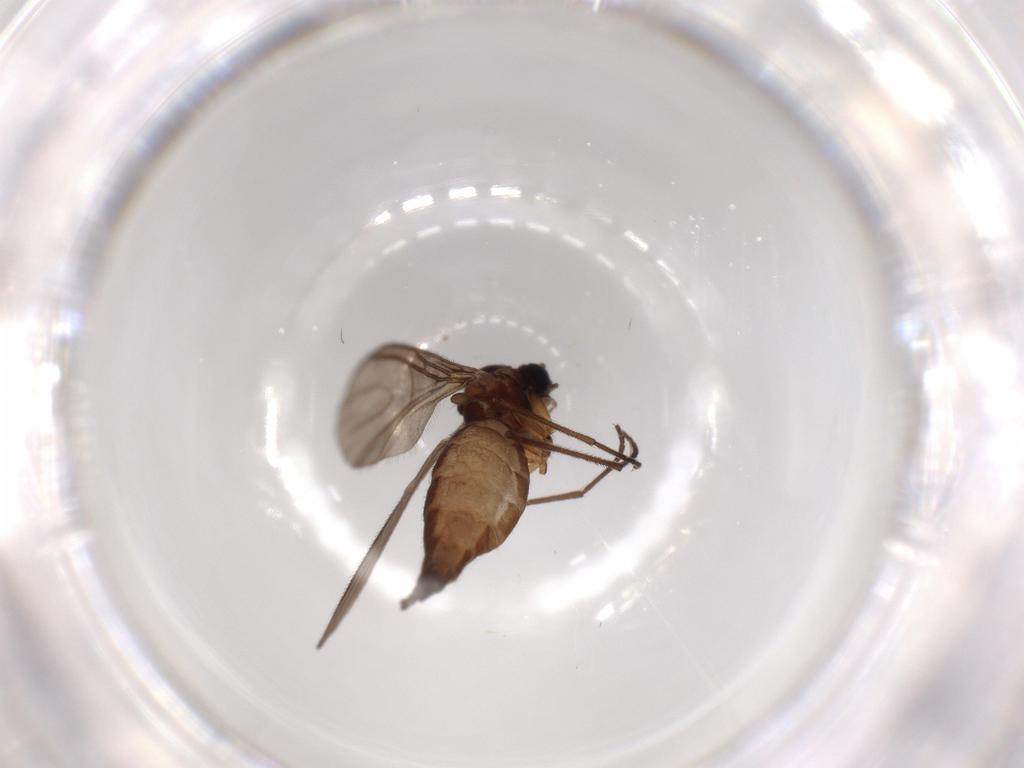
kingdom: Animalia
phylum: Arthropoda
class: Insecta
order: Diptera
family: Sciaridae
